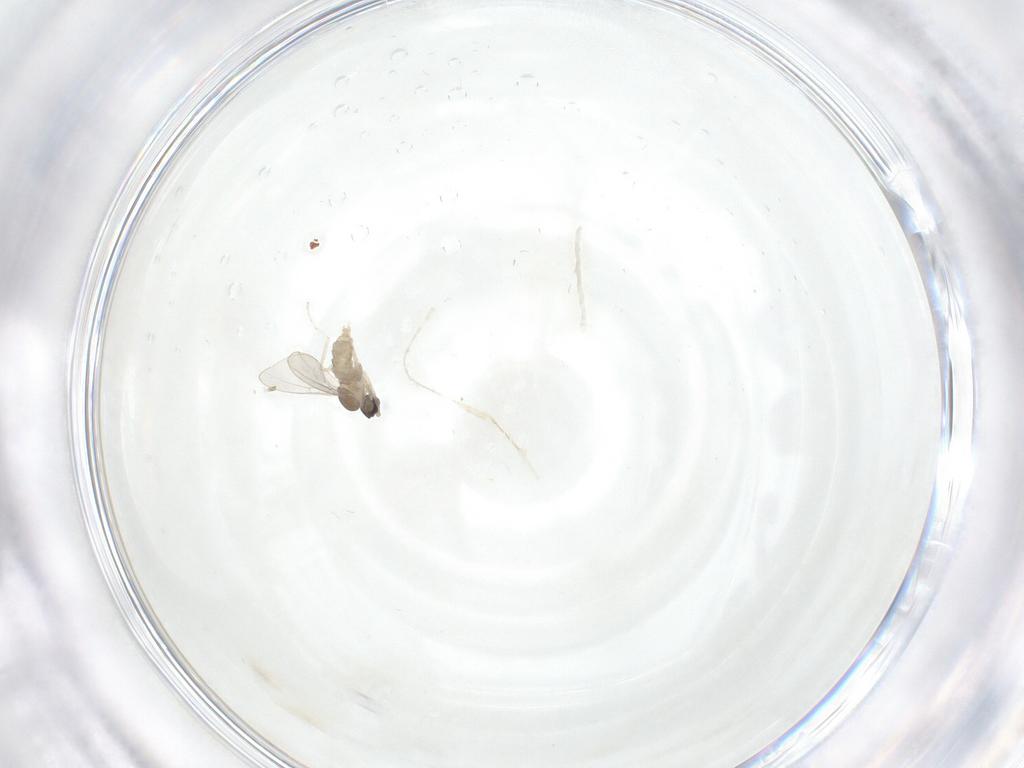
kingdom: Animalia
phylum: Arthropoda
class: Insecta
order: Diptera
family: Cecidomyiidae
